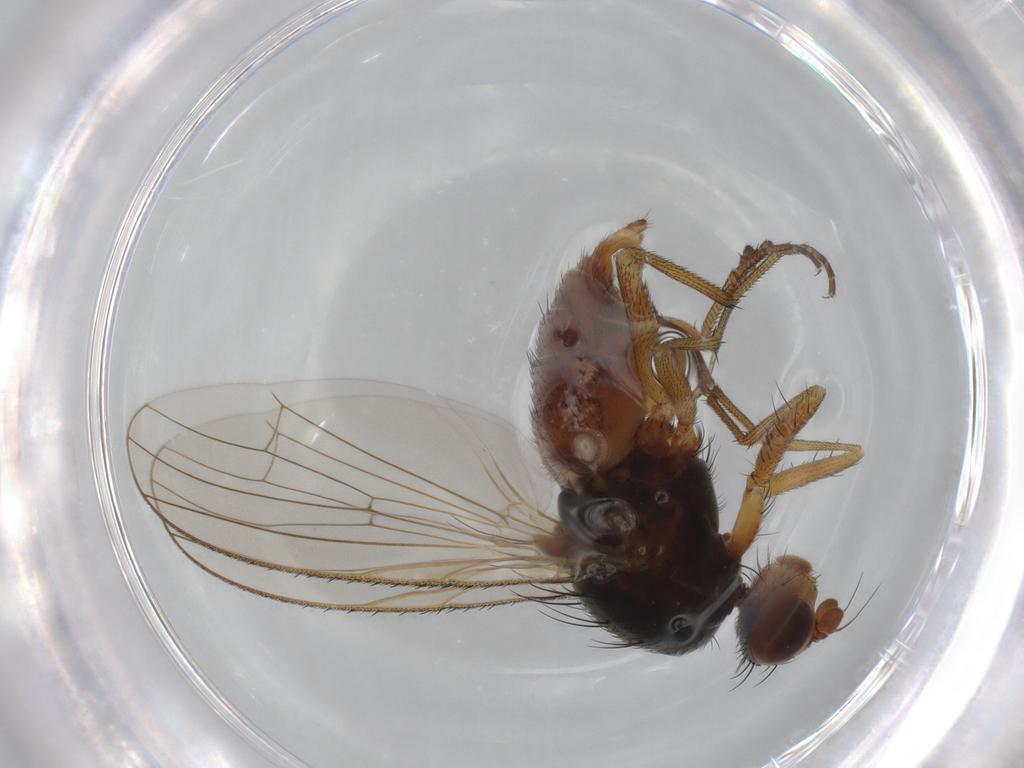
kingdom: Animalia
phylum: Arthropoda
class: Insecta
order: Diptera
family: Heleomyzidae
